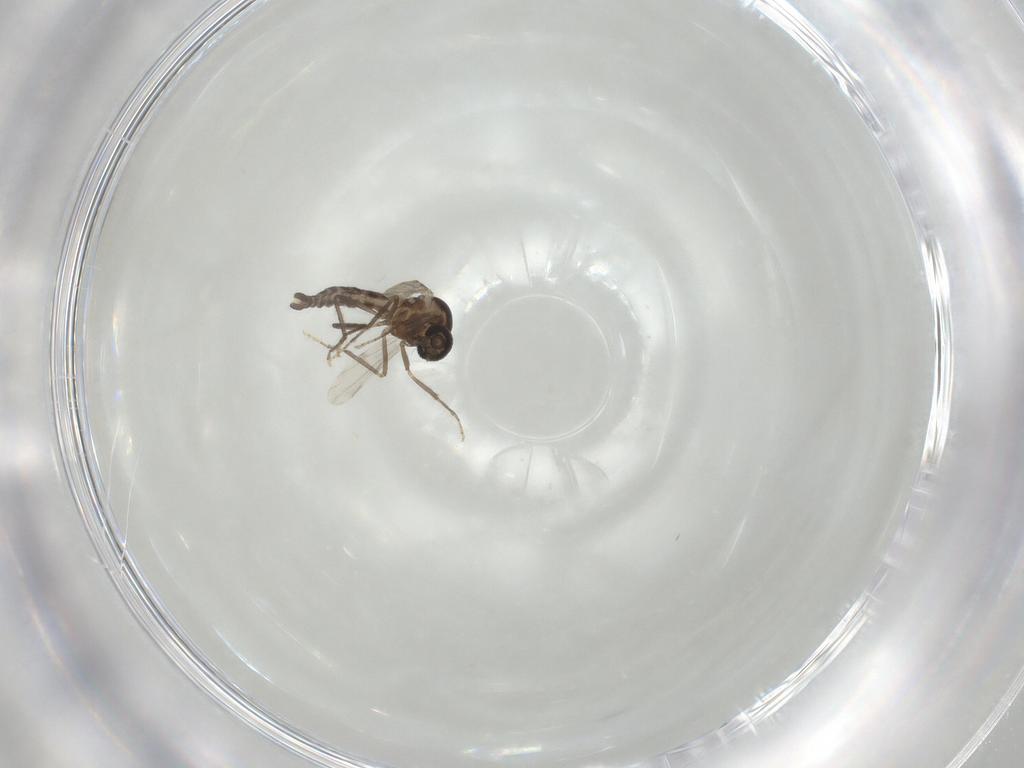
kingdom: Animalia
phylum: Arthropoda
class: Insecta
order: Diptera
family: Ceratopogonidae
